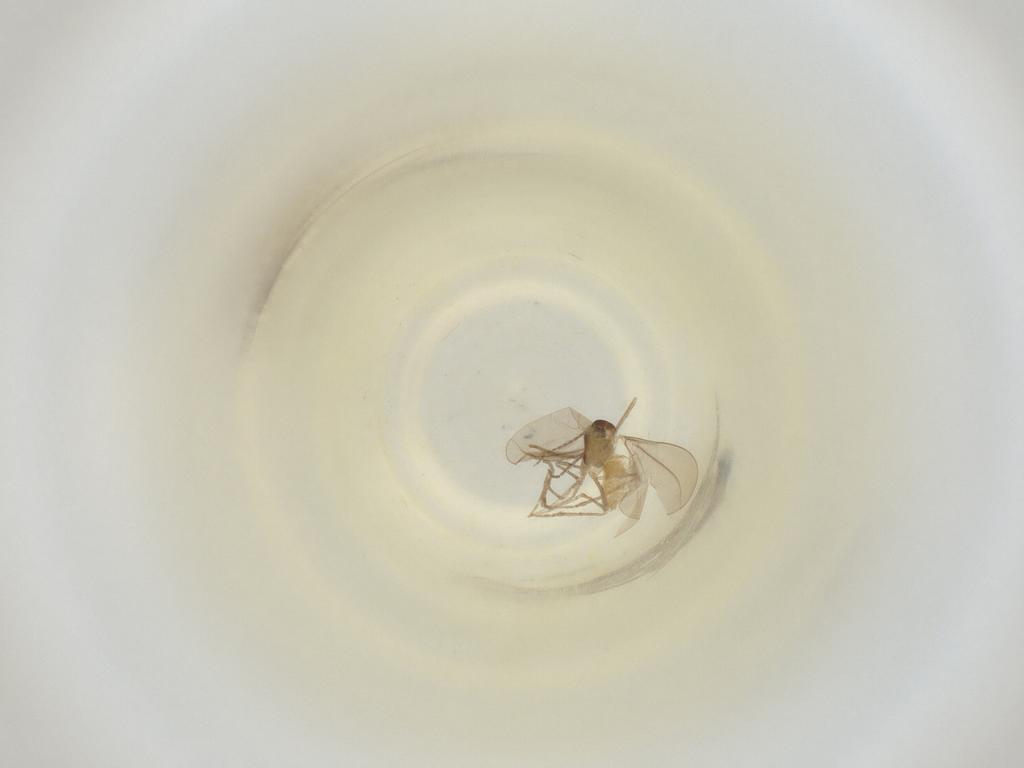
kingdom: Animalia
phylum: Arthropoda
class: Insecta
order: Diptera
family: Cecidomyiidae
